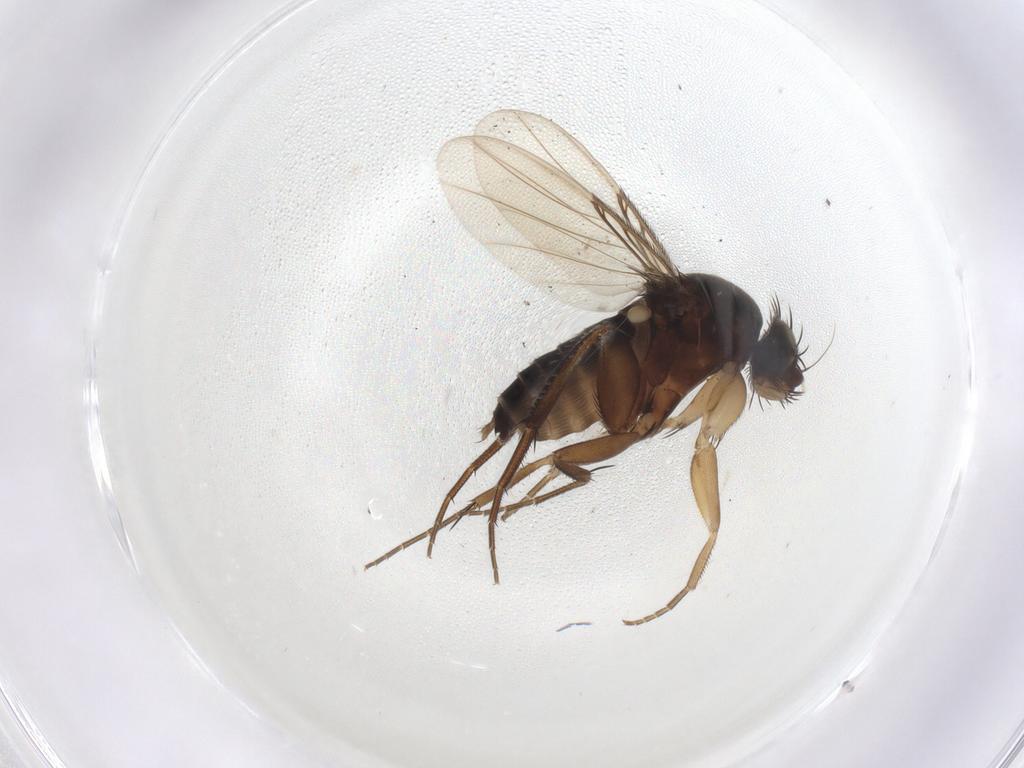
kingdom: Animalia
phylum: Arthropoda
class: Insecta
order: Diptera
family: Phoridae
